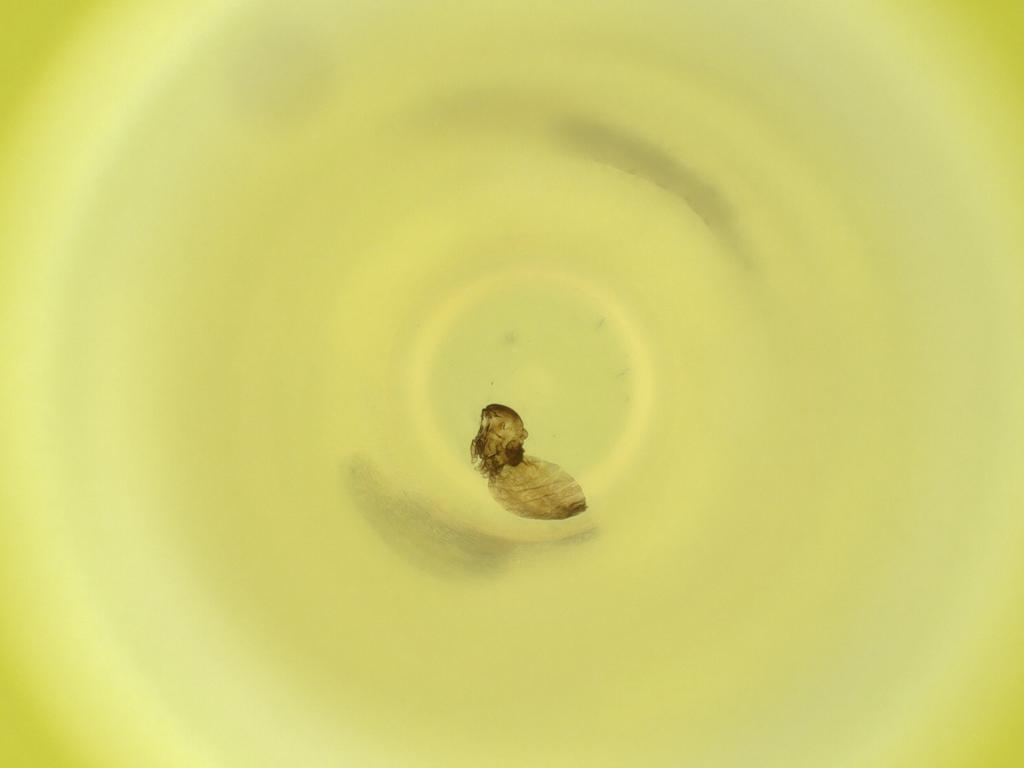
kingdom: Animalia
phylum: Arthropoda
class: Insecta
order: Diptera
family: Cecidomyiidae
